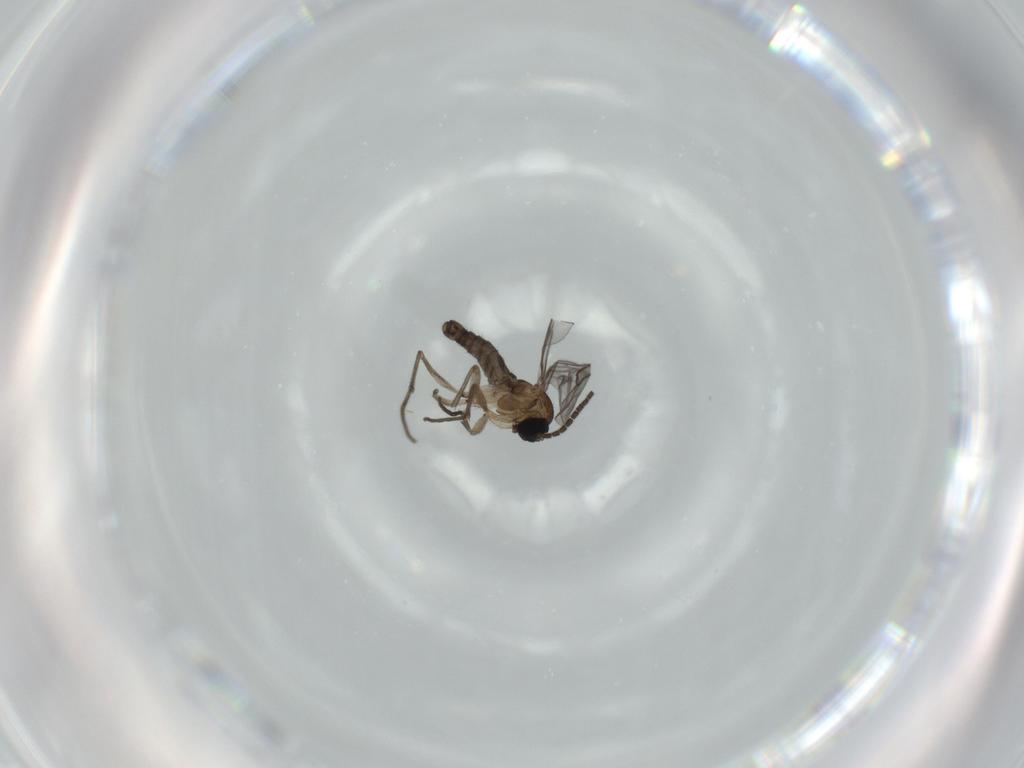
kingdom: Animalia
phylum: Arthropoda
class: Insecta
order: Diptera
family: Sciaridae
